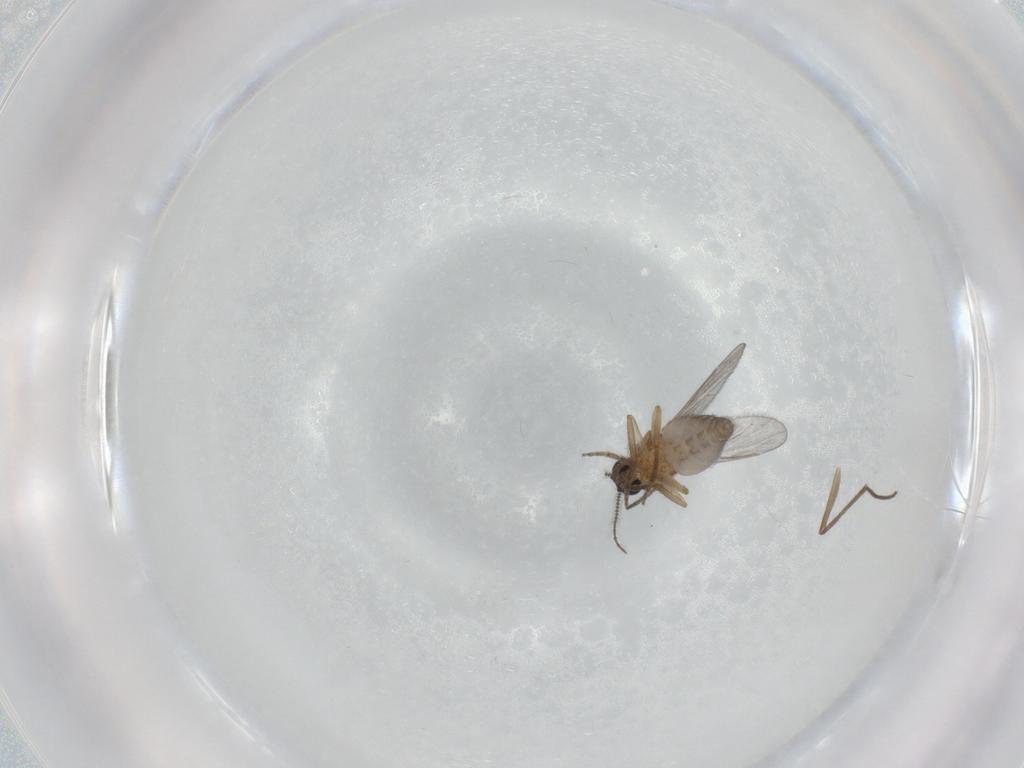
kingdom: Animalia
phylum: Arthropoda
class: Insecta
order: Diptera
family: Ceratopogonidae
